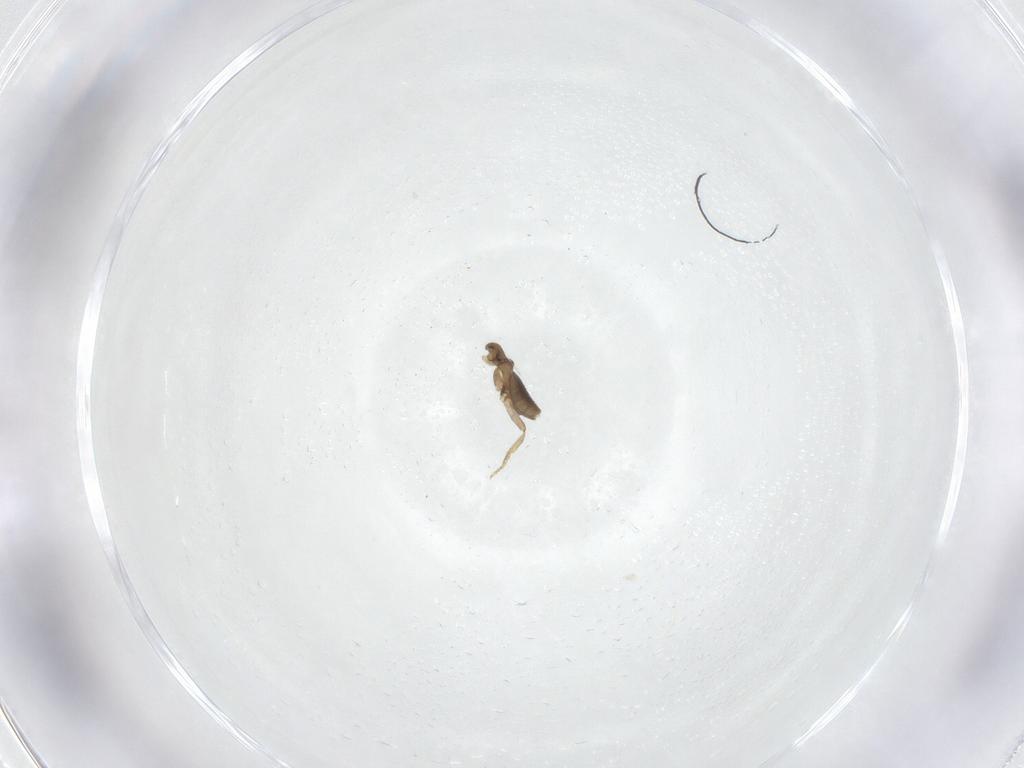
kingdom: Animalia
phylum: Arthropoda
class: Insecta
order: Diptera
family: Phoridae
